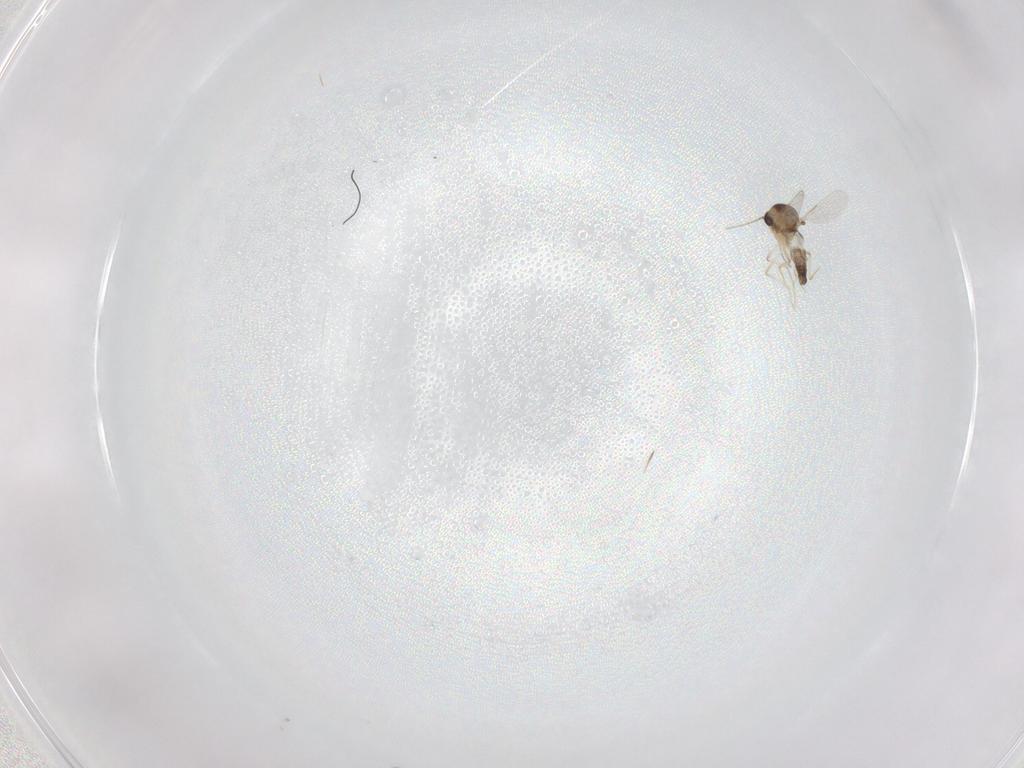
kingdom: Animalia
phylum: Arthropoda
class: Insecta
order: Diptera
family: Ceratopogonidae
